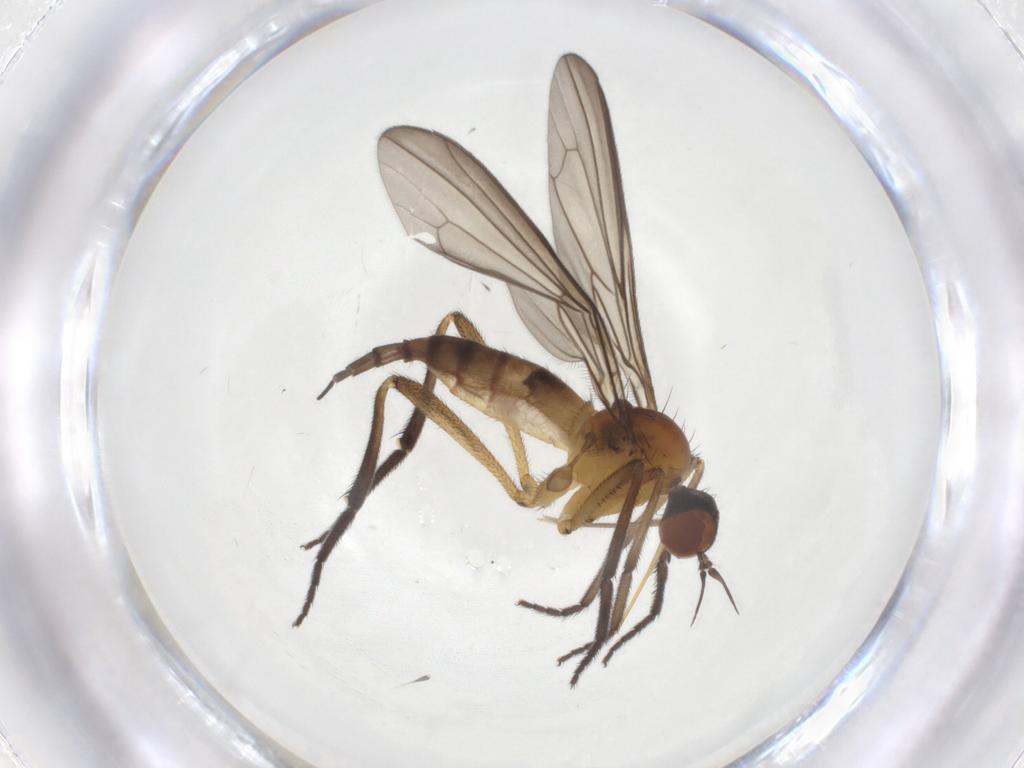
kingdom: Animalia
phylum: Arthropoda
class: Insecta
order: Diptera
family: Empididae
